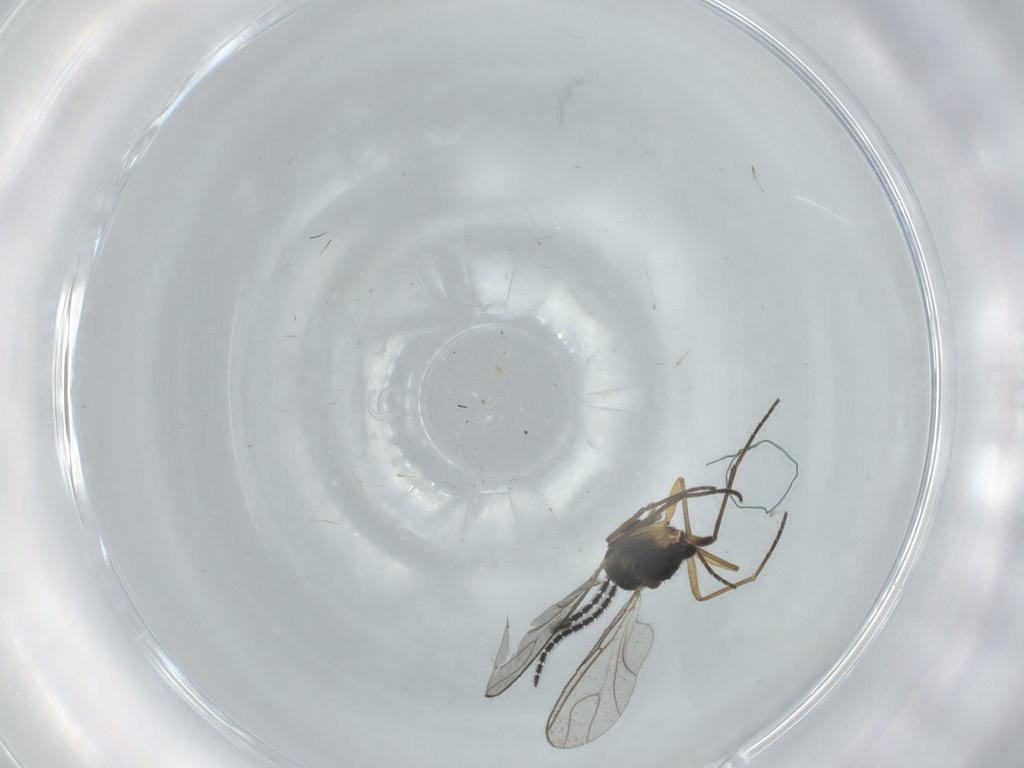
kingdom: Animalia
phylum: Arthropoda
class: Insecta
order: Diptera
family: Sciaridae
